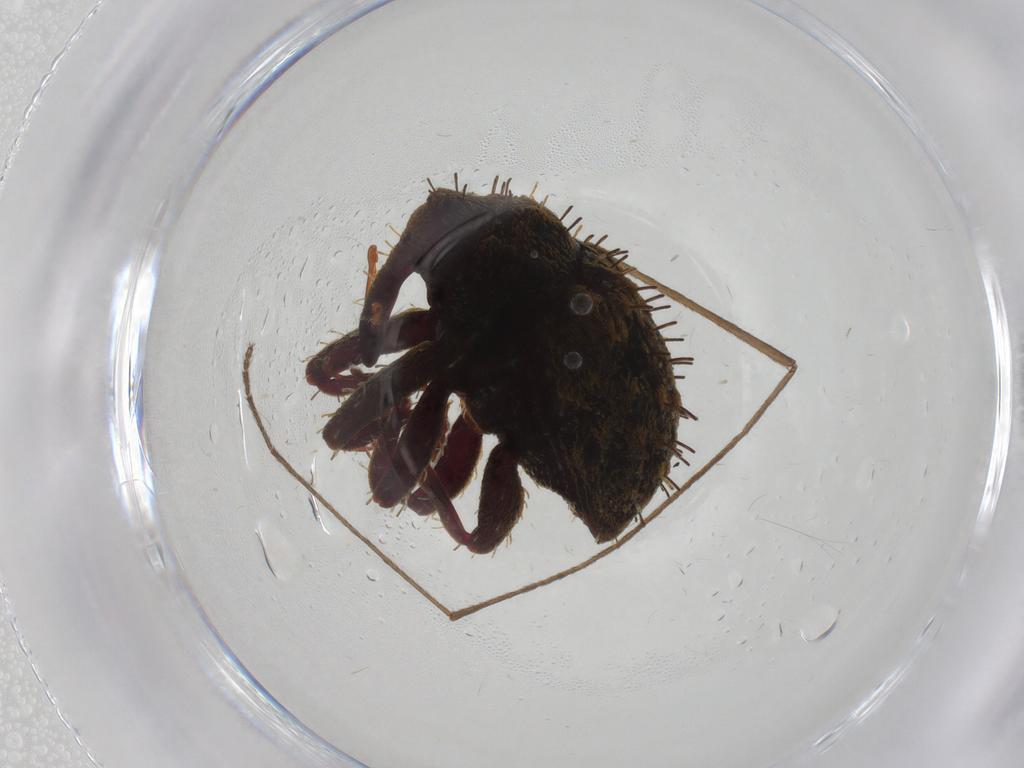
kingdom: Animalia
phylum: Arthropoda
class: Insecta
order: Coleoptera
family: Curculionidae
